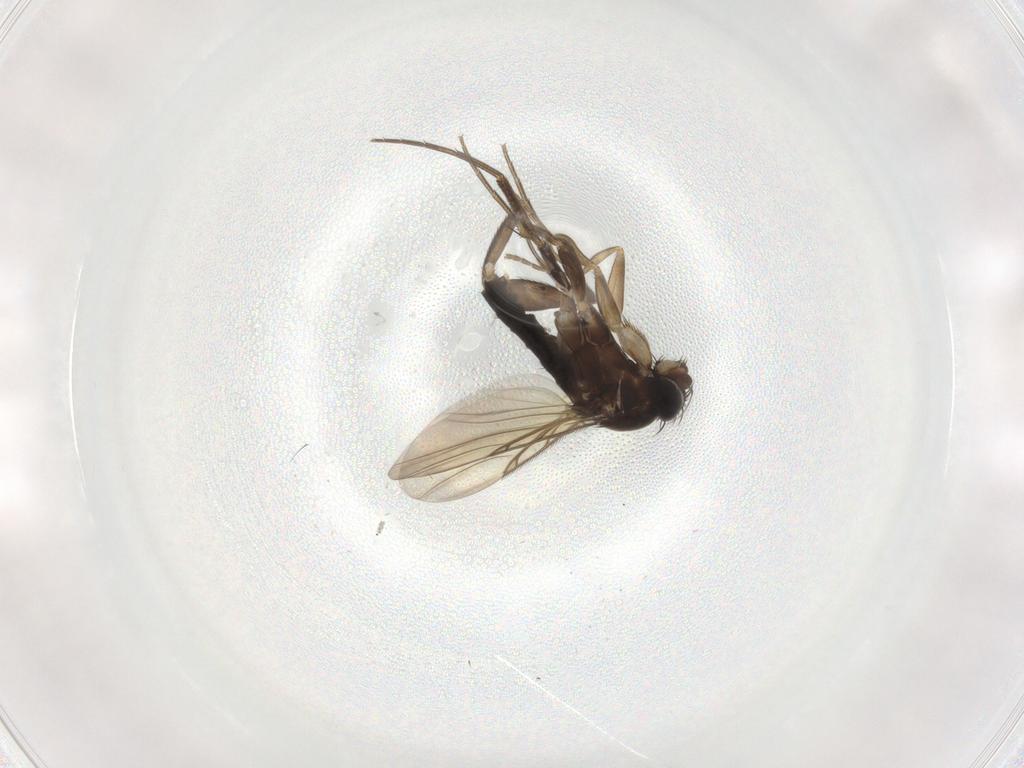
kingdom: Animalia
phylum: Arthropoda
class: Insecta
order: Diptera
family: Phoridae
